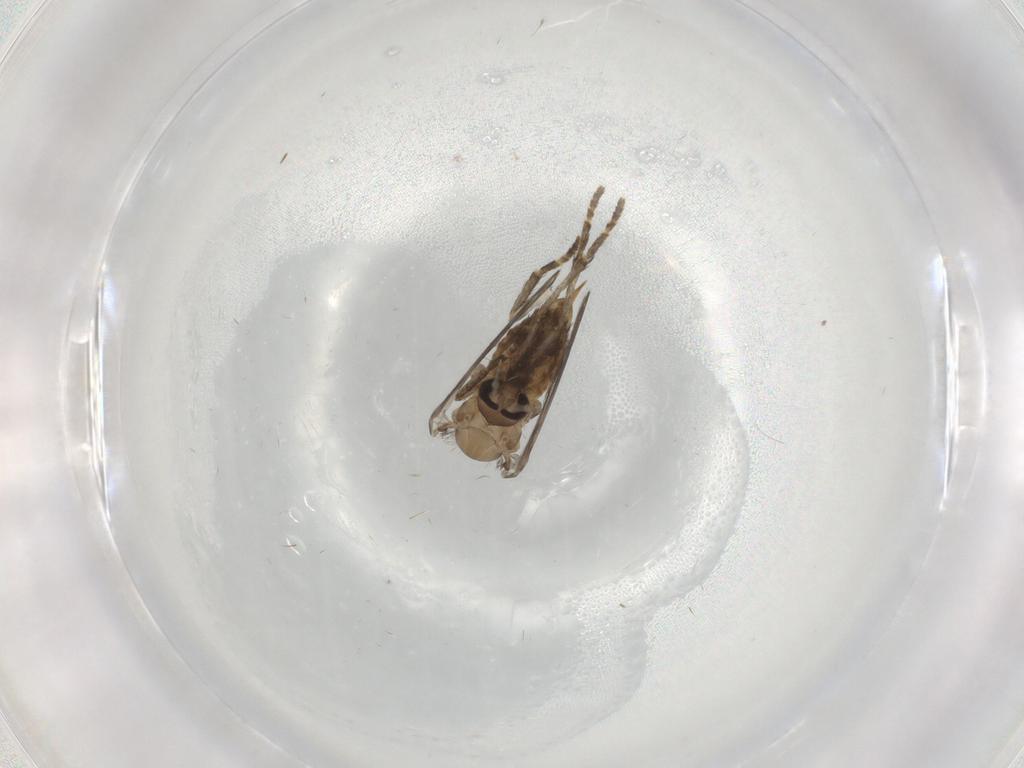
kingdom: Animalia
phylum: Arthropoda
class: Insecta
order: Diptera
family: Psychodidae
